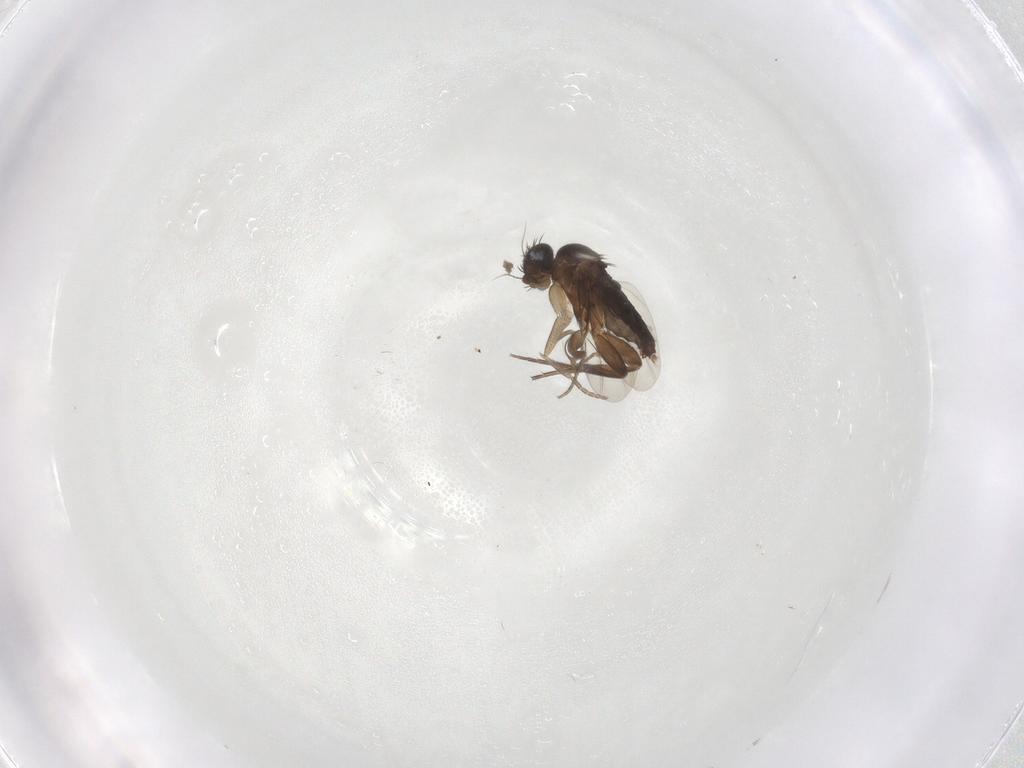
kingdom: Animalia
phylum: Arthropoda
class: Insecta
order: Diptera
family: Phoridae
